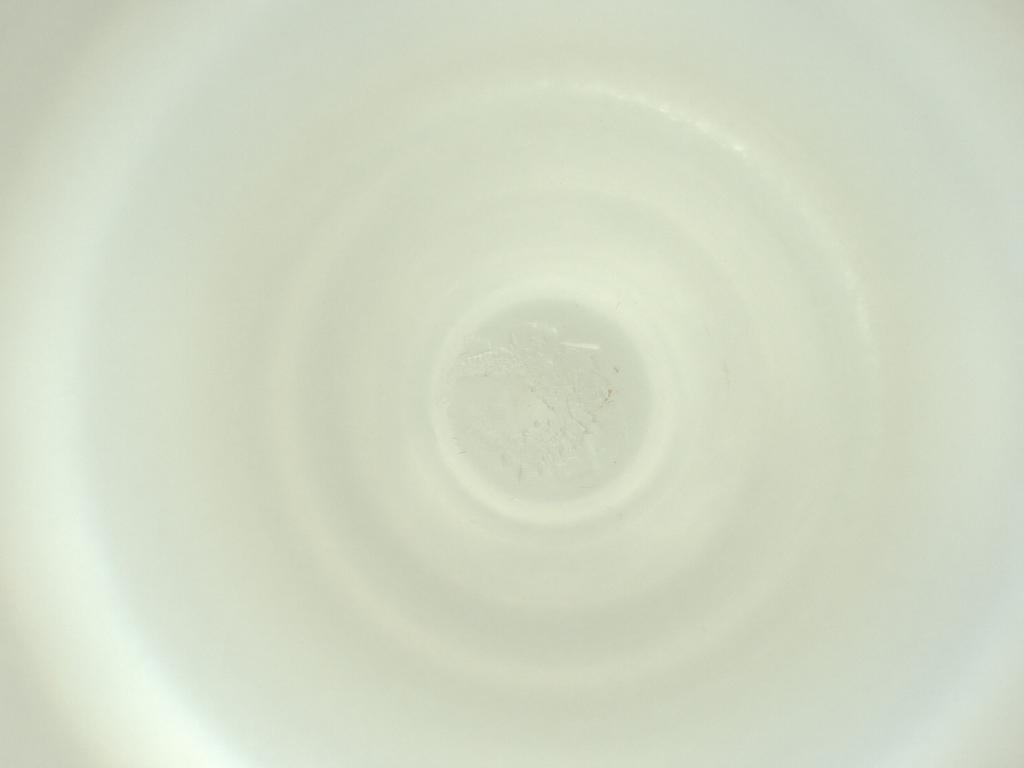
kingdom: Animalia
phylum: Arthropoda
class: Insecta
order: Diptera
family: Cecidomyiidae
